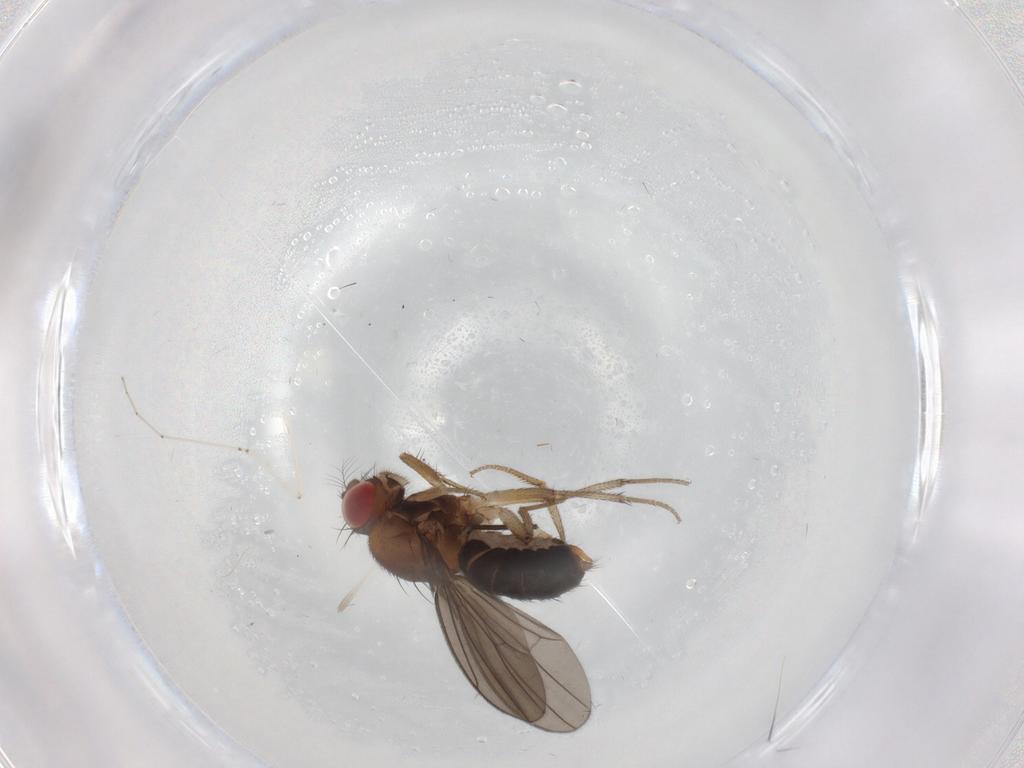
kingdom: Animalia
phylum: Arthropoda
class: Insecta
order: Diptera
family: Drosophilidae
